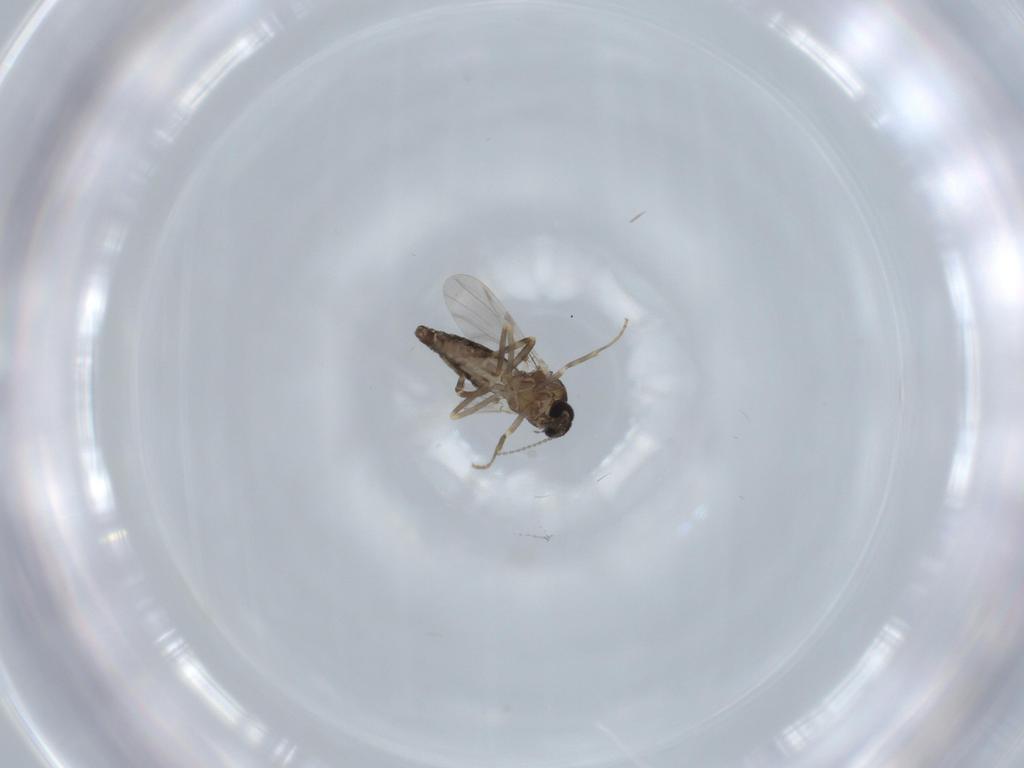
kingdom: Animalia
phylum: Arthropoda
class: Insecta
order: Diptera
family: Ceratopogonidae
